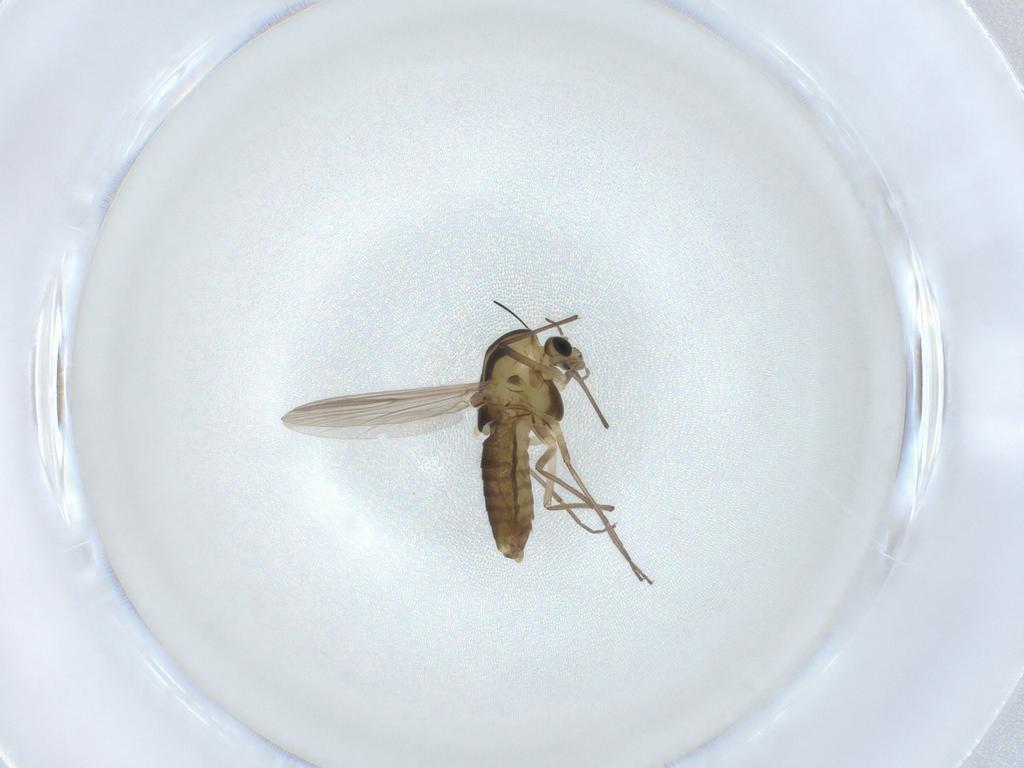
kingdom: Animalia
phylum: Arthropoda
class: Insecta
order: Diptera
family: Chironomidae
